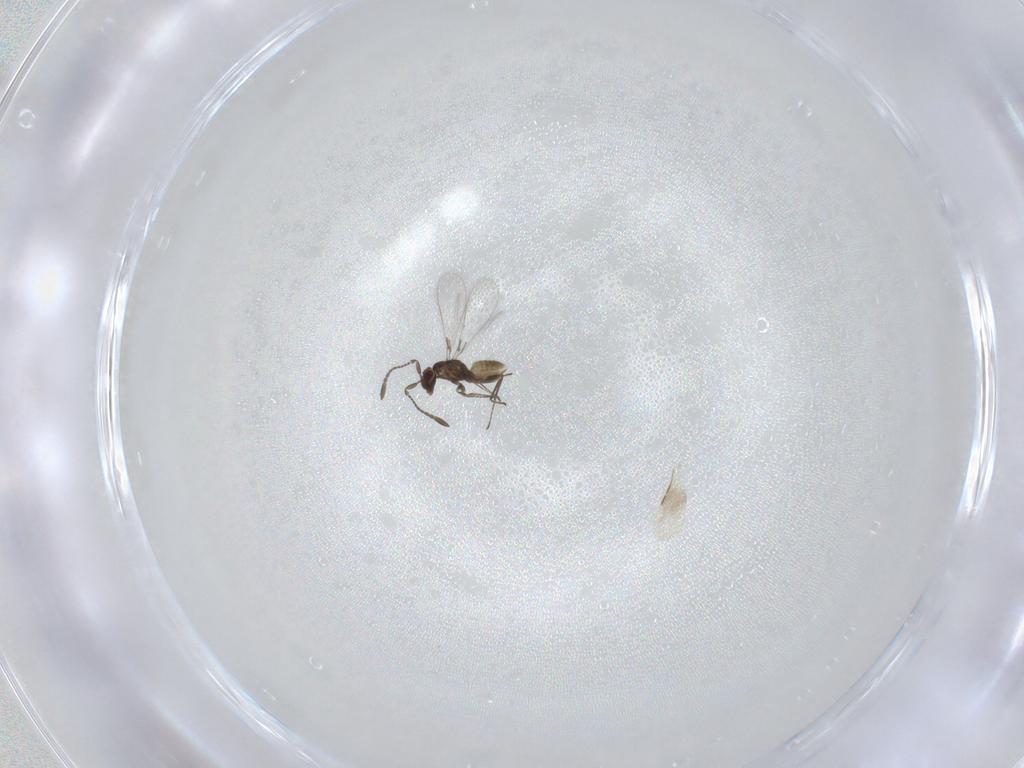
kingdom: Animalia
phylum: Arthropoda
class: Insecta
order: Hymenoptera
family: Mymaridae
